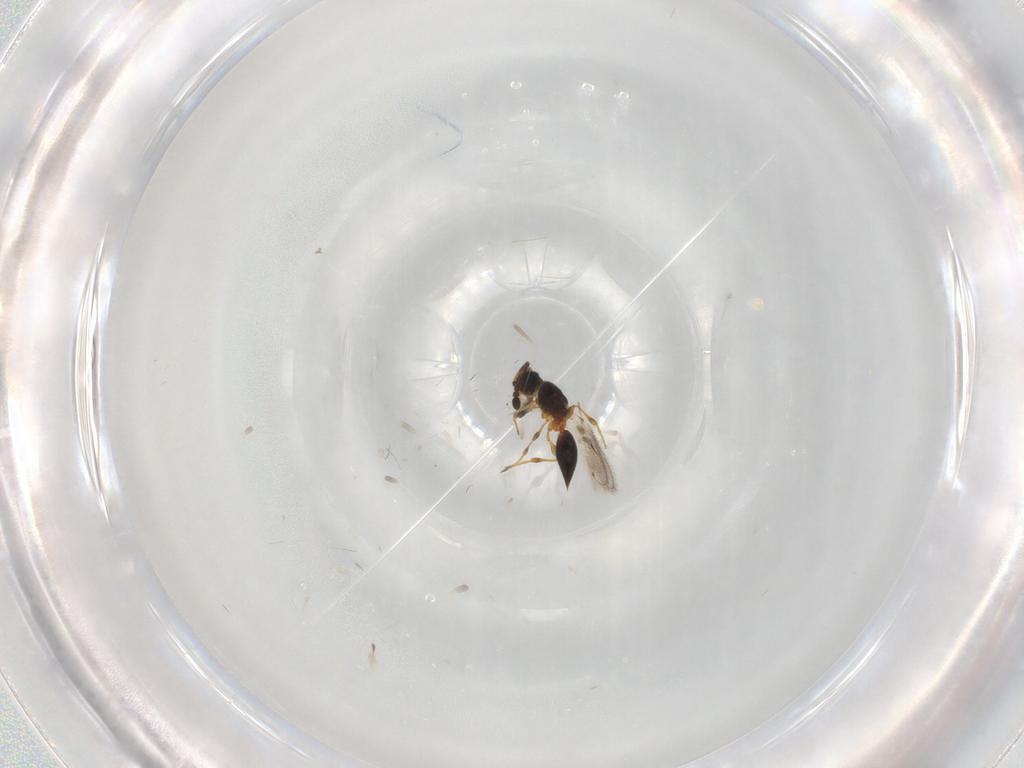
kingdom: Animalia
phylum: Arthropoda
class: Insecta
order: Hymenoptera
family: Diapriidae
